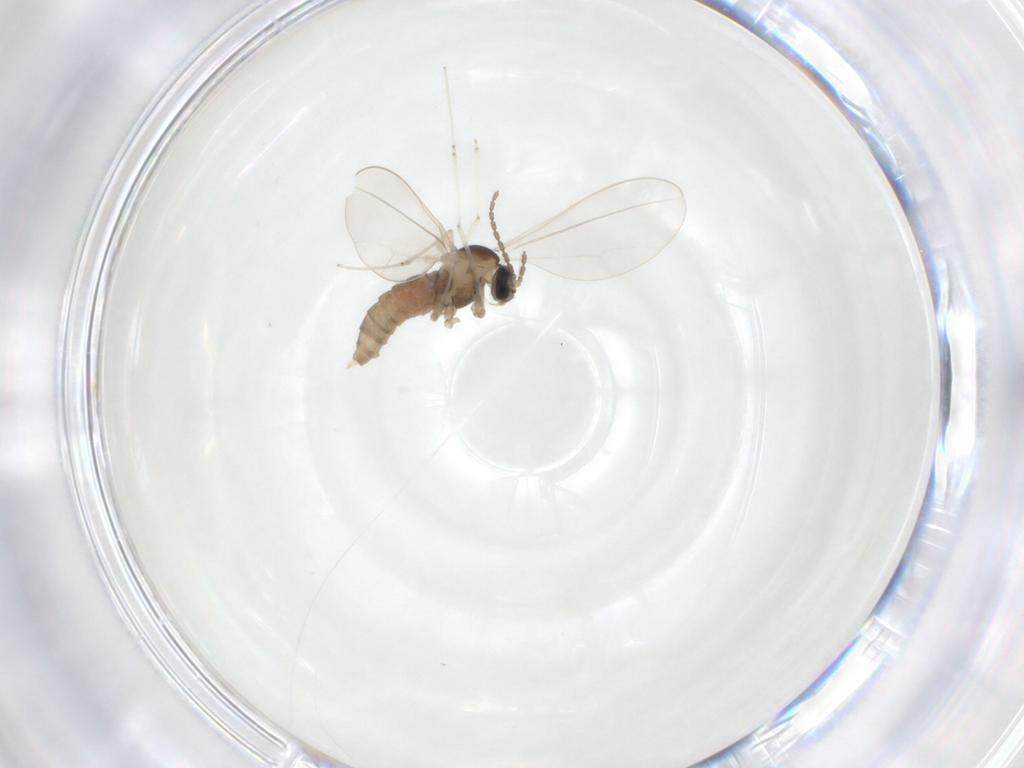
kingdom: Animalia
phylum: Arthropoda
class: Insecta
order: Diptera
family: Cecidomyiidae
